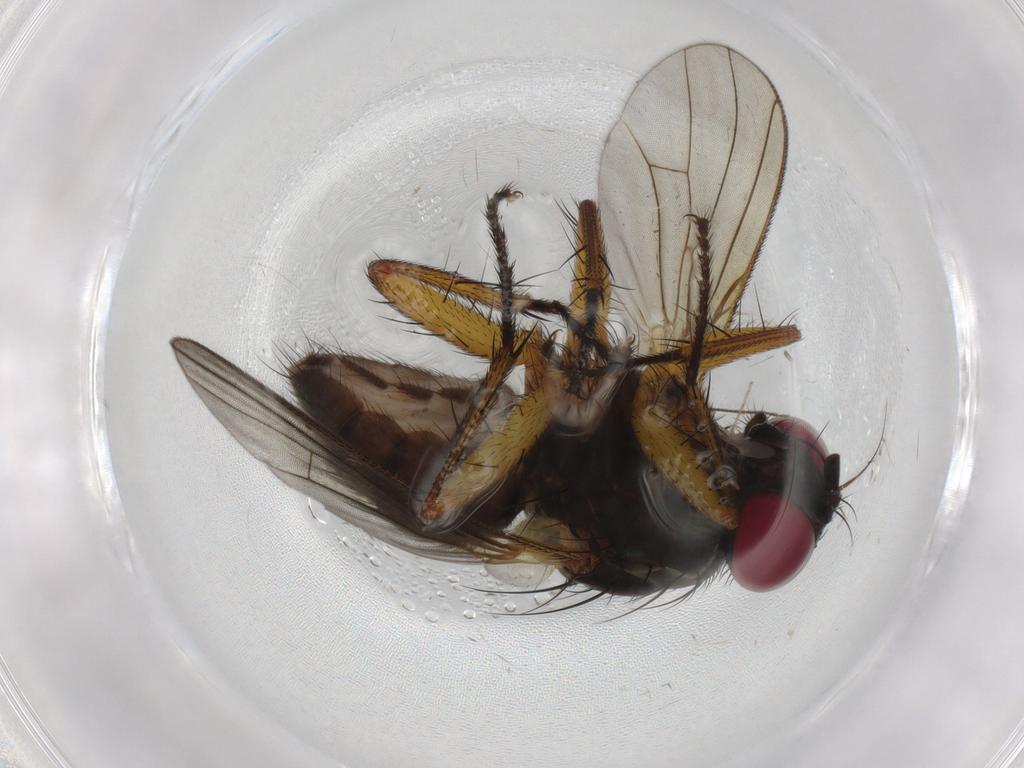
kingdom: Animalia
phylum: Arthropoda
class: Insecta
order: Diptera
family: Muscidae
